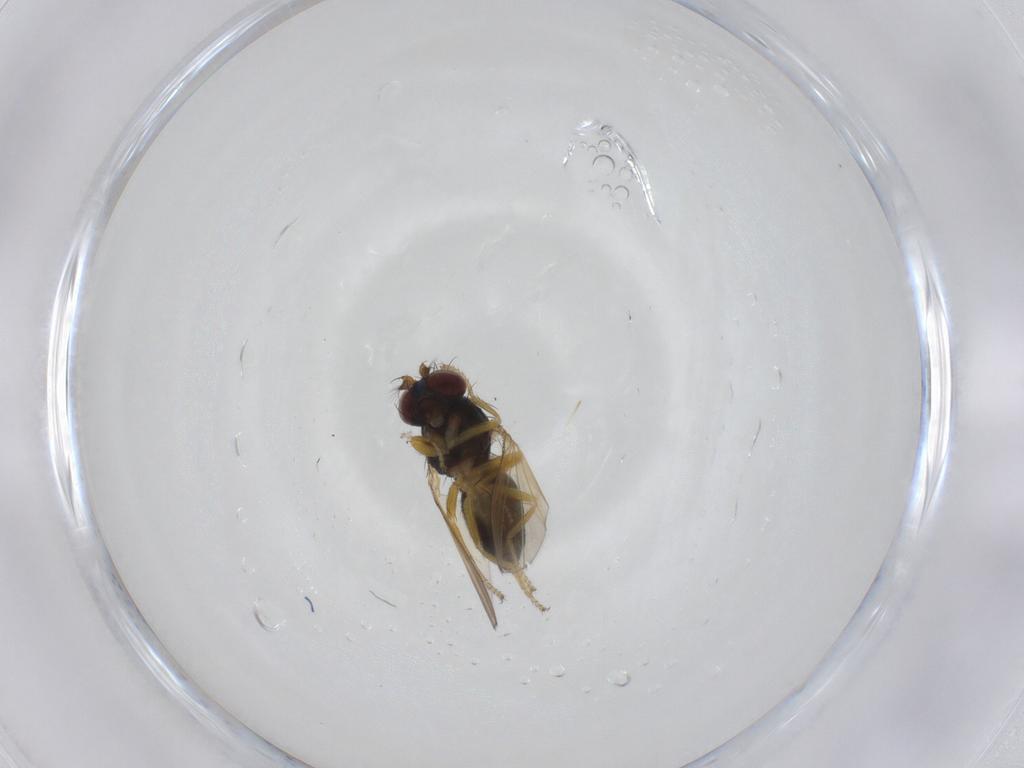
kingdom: Animalia
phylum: Arthropoda
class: Insecta
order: Diptera
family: Ephydridae
